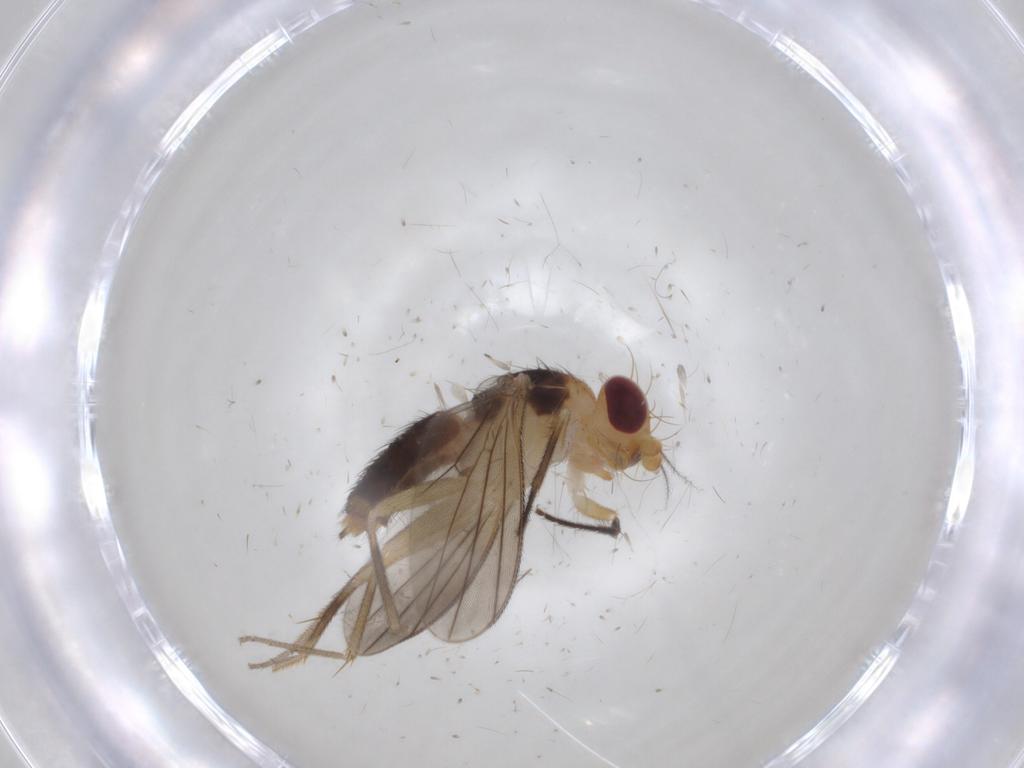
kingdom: Animalia
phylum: Arthropoda
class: Insecta
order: Diptera
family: Clusiidae
